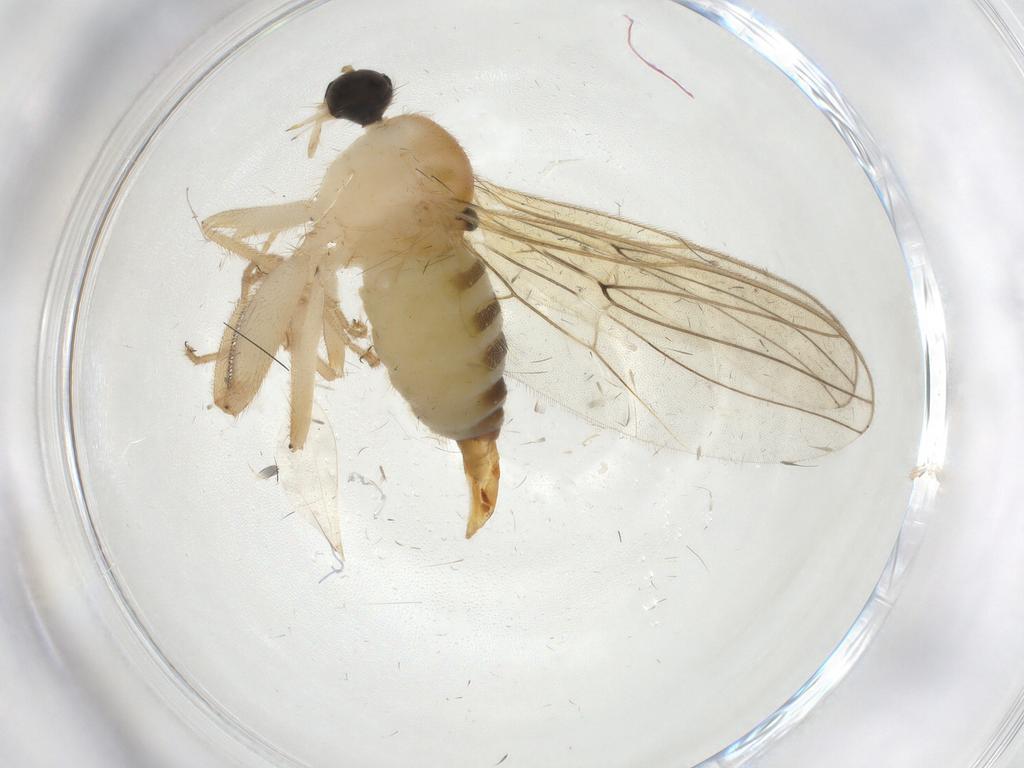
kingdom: Animalia
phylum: Arthropoda
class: Insecta
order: Diptera
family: Hybotidae
